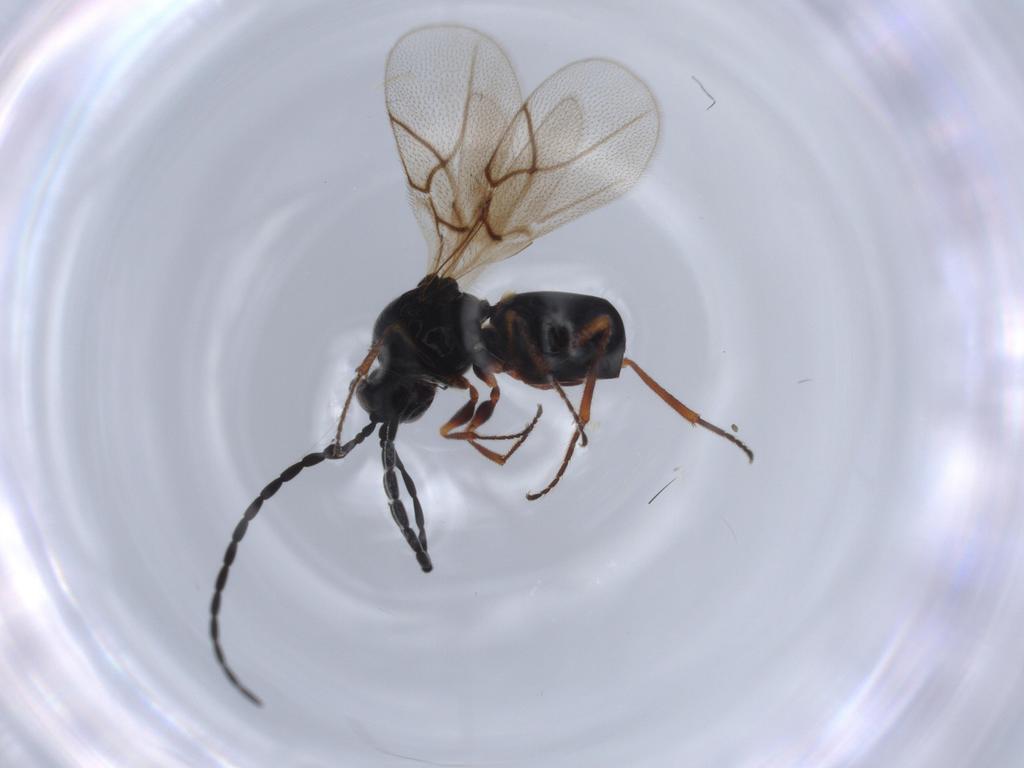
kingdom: Animalia
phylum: Arthropoda
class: Insecta
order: Hymenoptera
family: Figitidae
